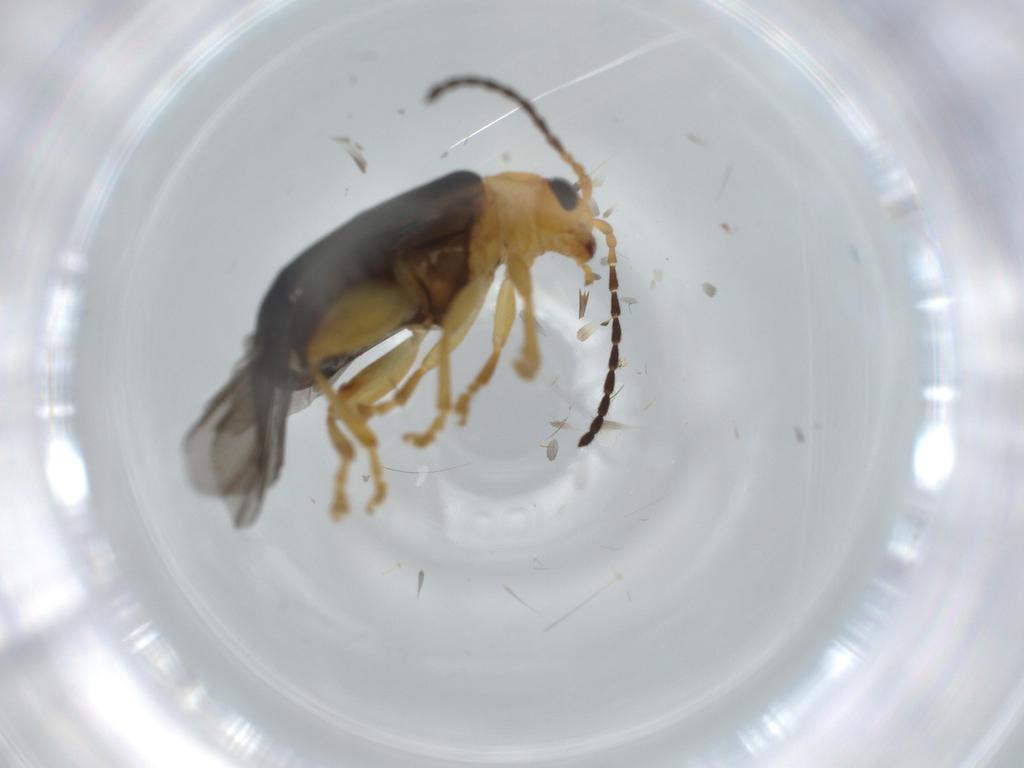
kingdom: Animalia
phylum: Arthropoda
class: Insecta
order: Coleoptera
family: Chrysomelidae
